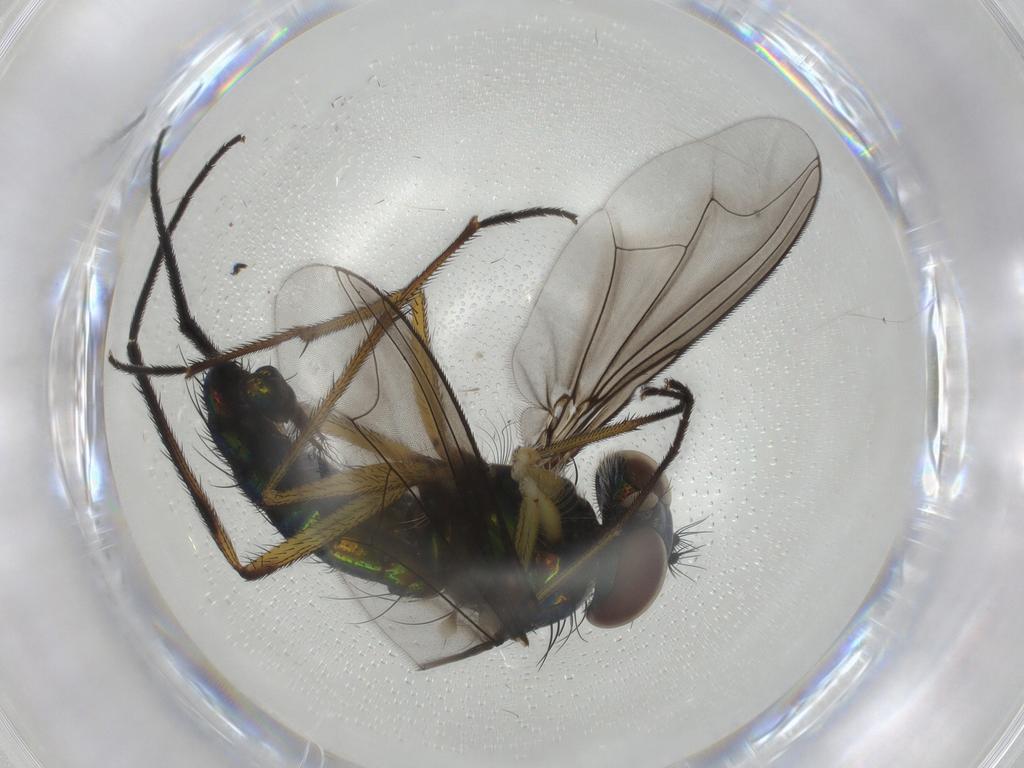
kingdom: Animalia
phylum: Arthropoda
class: Insecta
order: Diptera
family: Dolichopodidae
